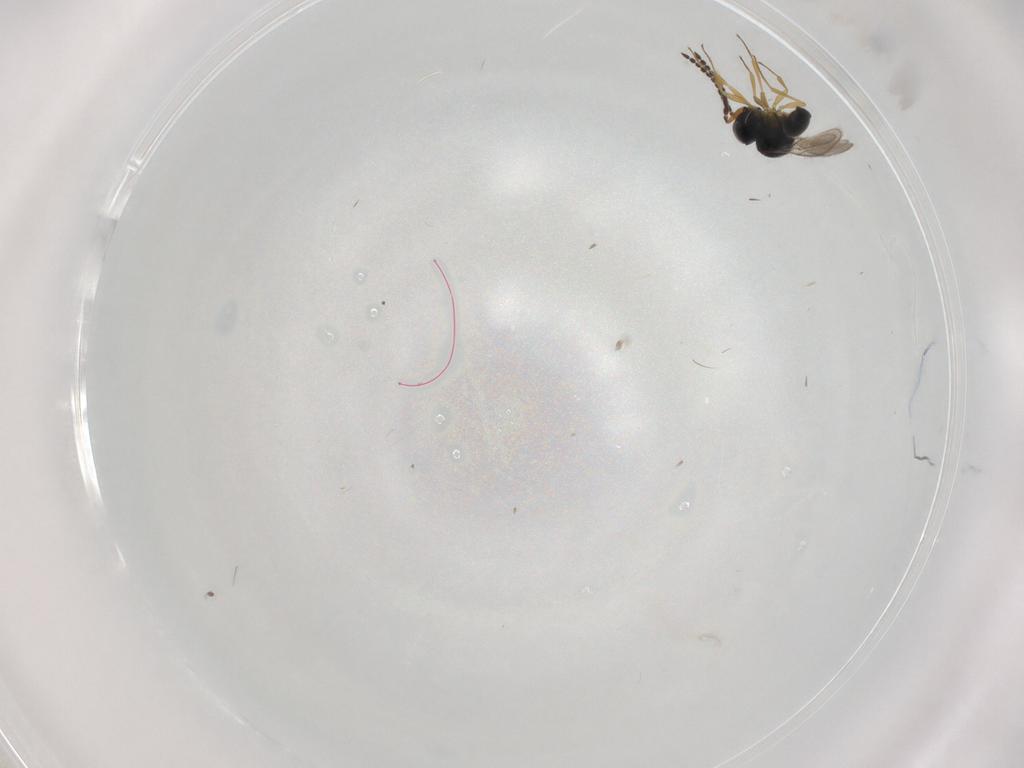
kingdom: Animalia
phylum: Arthropoda
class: Insecta
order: Hymenoptera
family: Scelionidae
